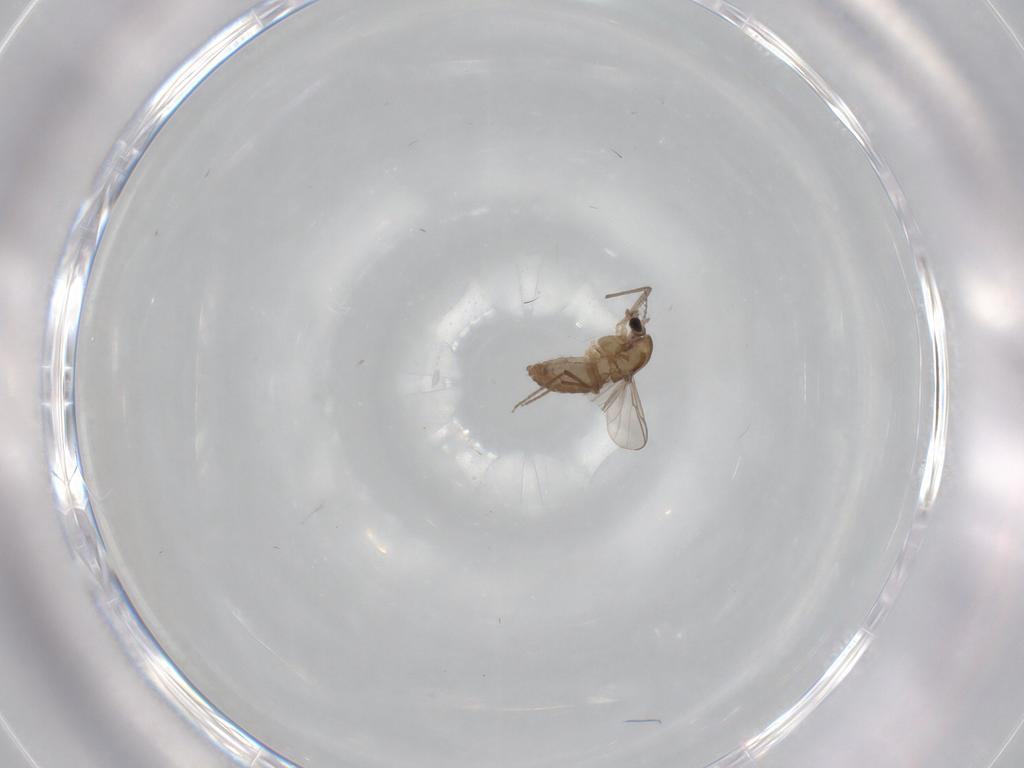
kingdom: Animalia
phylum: Arthropoda
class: Insecta
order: Diptera
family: Chironomidae
